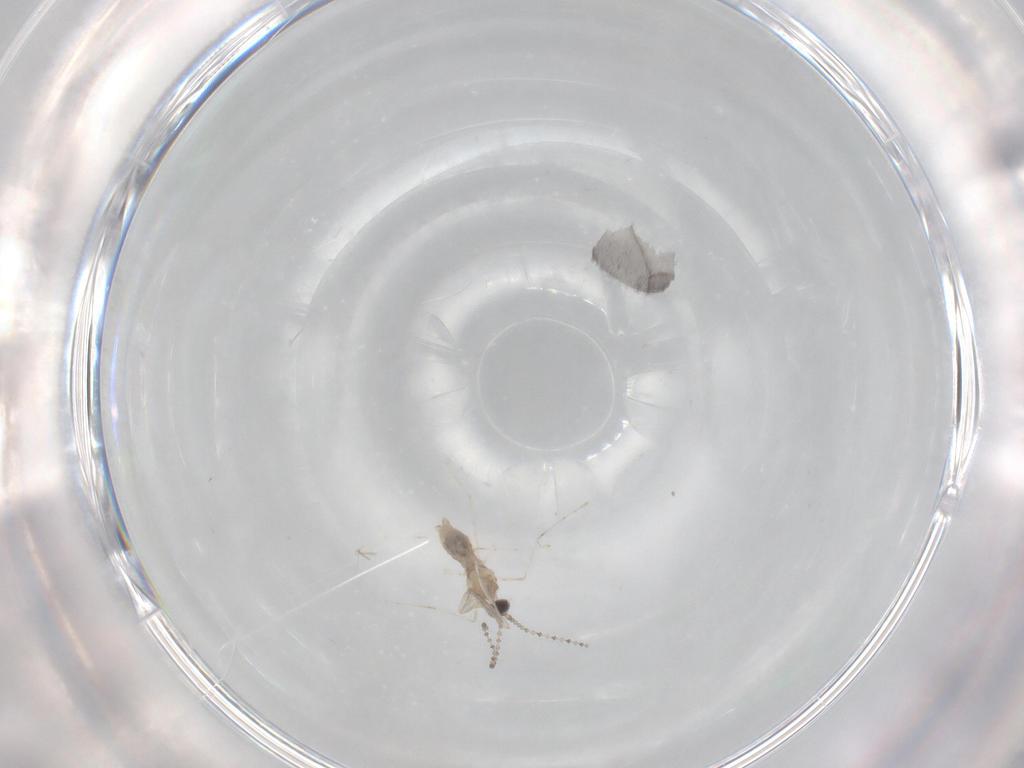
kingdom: Animalia
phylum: Arthropoda
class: Insecta
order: Diptera
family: Cecidomyiidae
